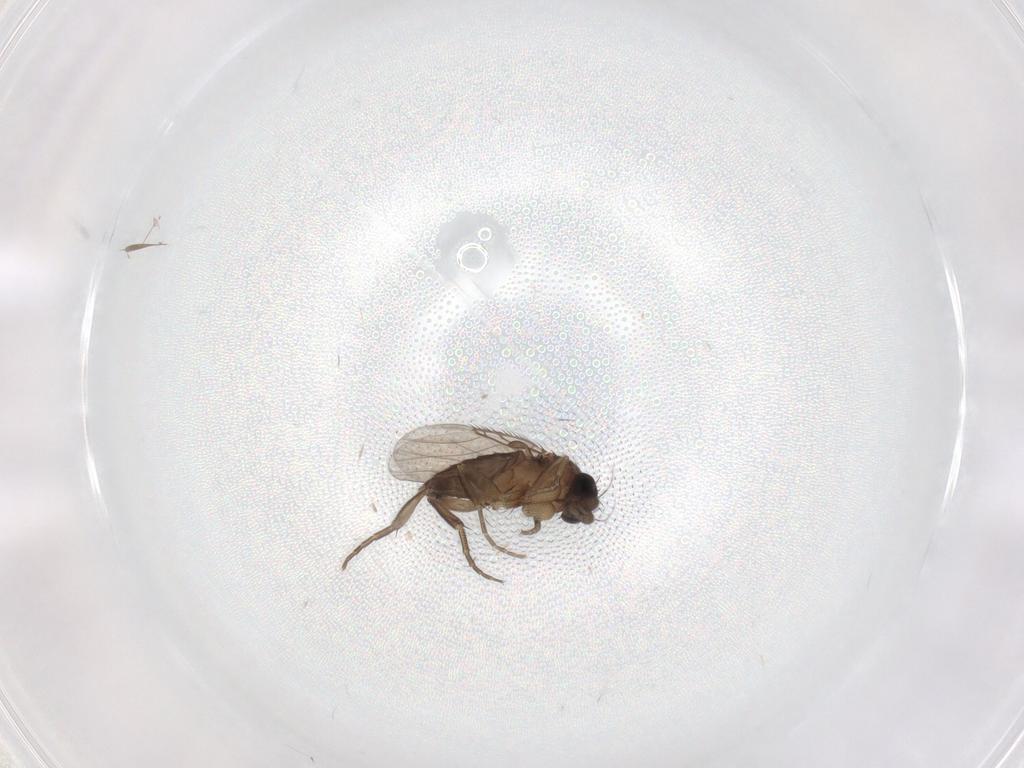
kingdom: Animalia
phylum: Arthropoda
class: Insecta
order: Diptera
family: Phoridae
